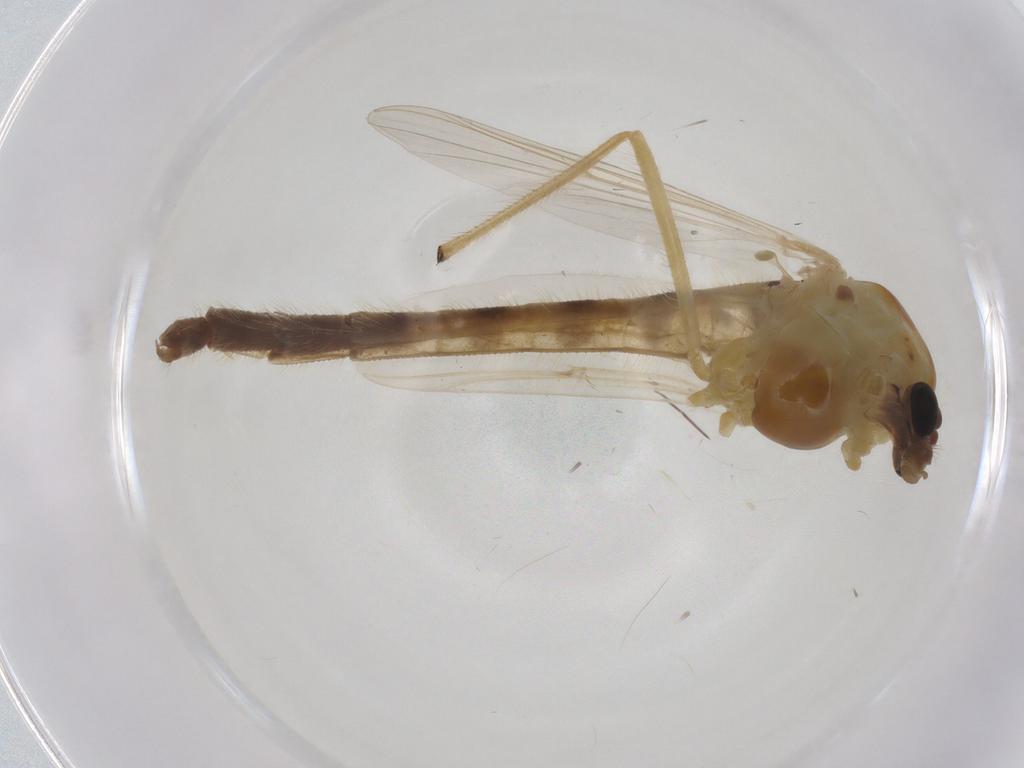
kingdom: Animalia
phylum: Arthropoda
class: Insecta
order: Diptera
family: Chironomidae
